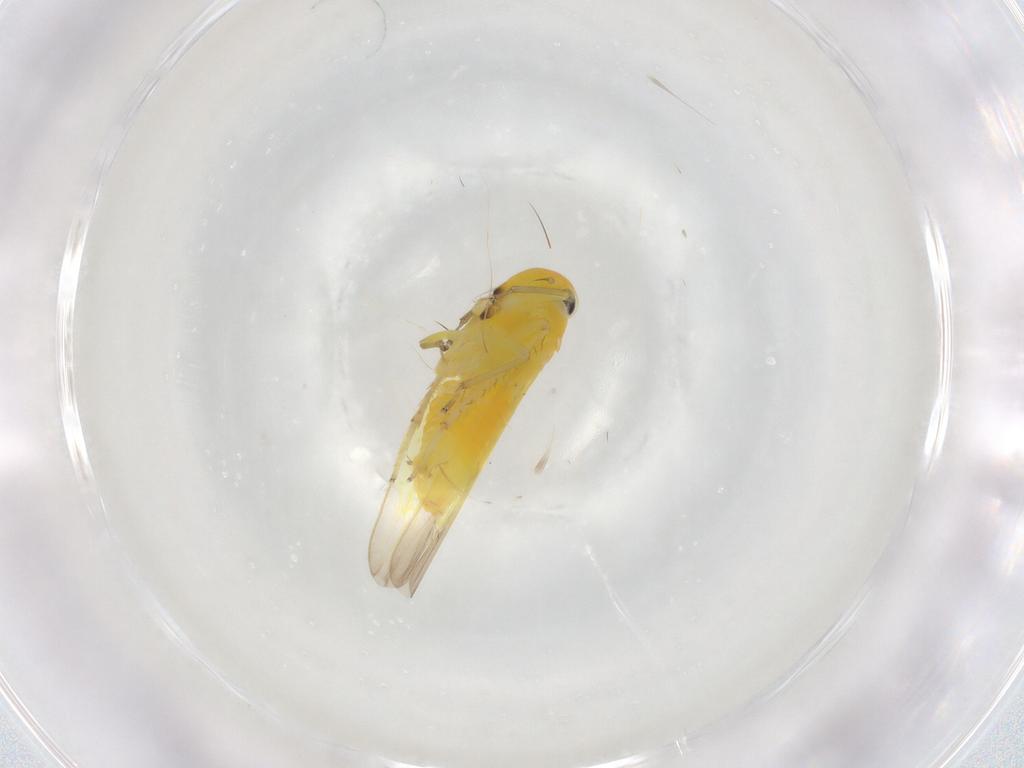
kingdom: Animalia
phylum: Arthropoda
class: Insecta
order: Hemiptera
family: Cicadellidae
